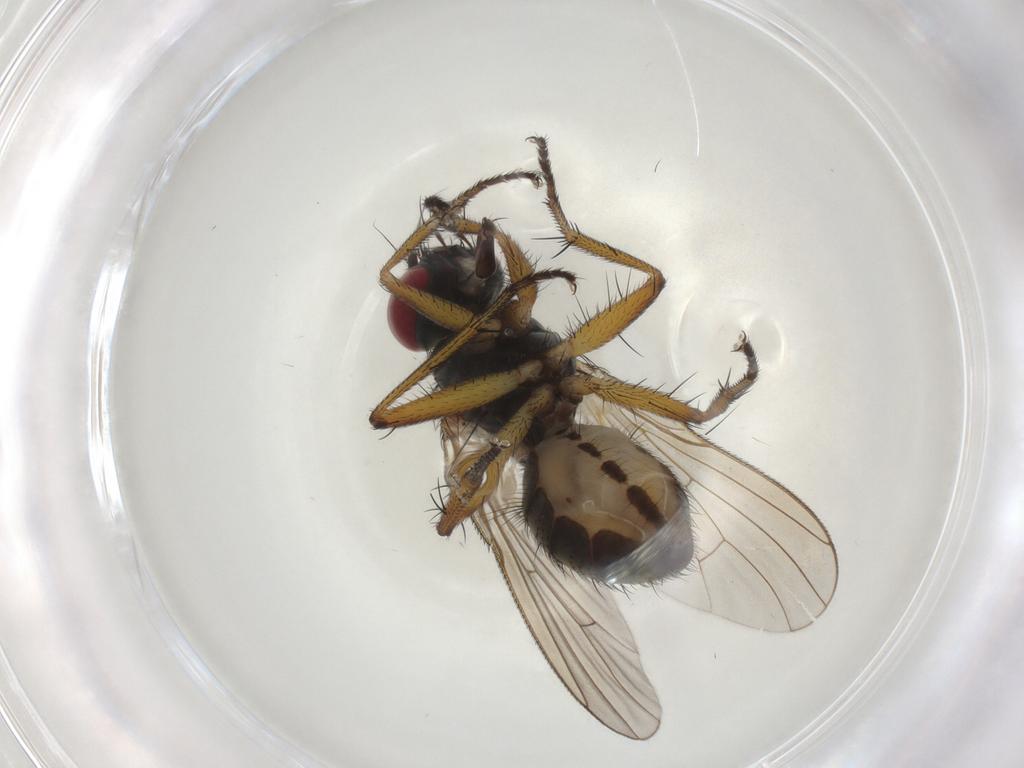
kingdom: Animalia
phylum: Arthropoda
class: Insecta
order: Diptera
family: Muscidae
